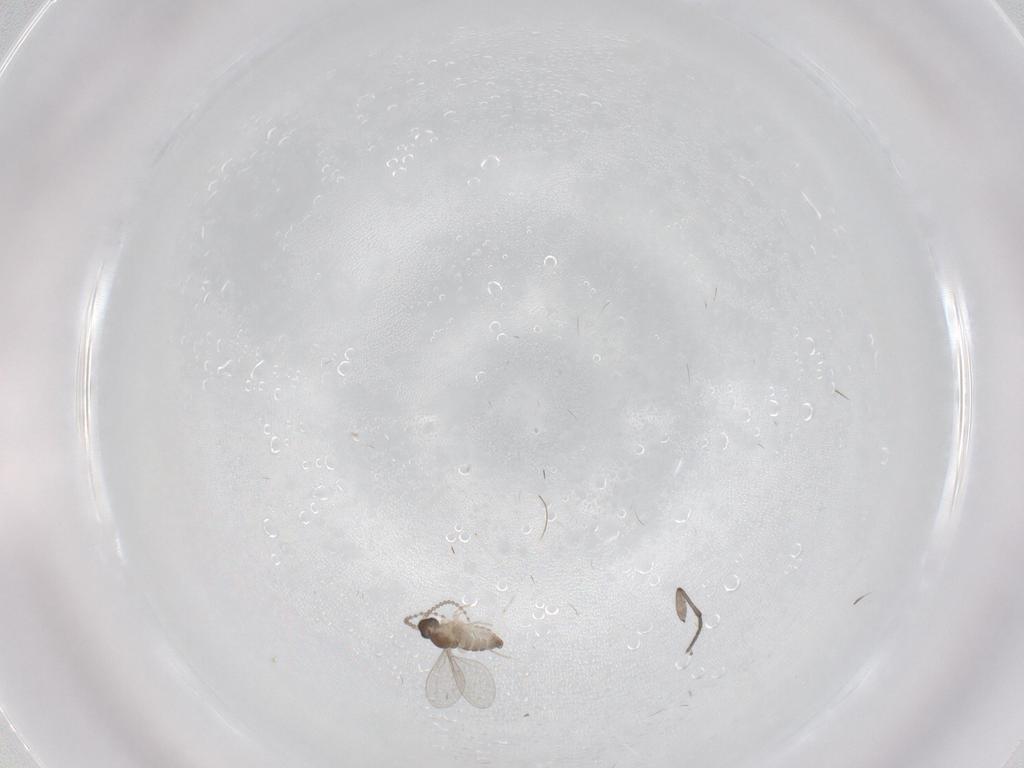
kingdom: Animalia
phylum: Arthropoda
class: Insecta
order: Diptera
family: Cecidomyiidae
